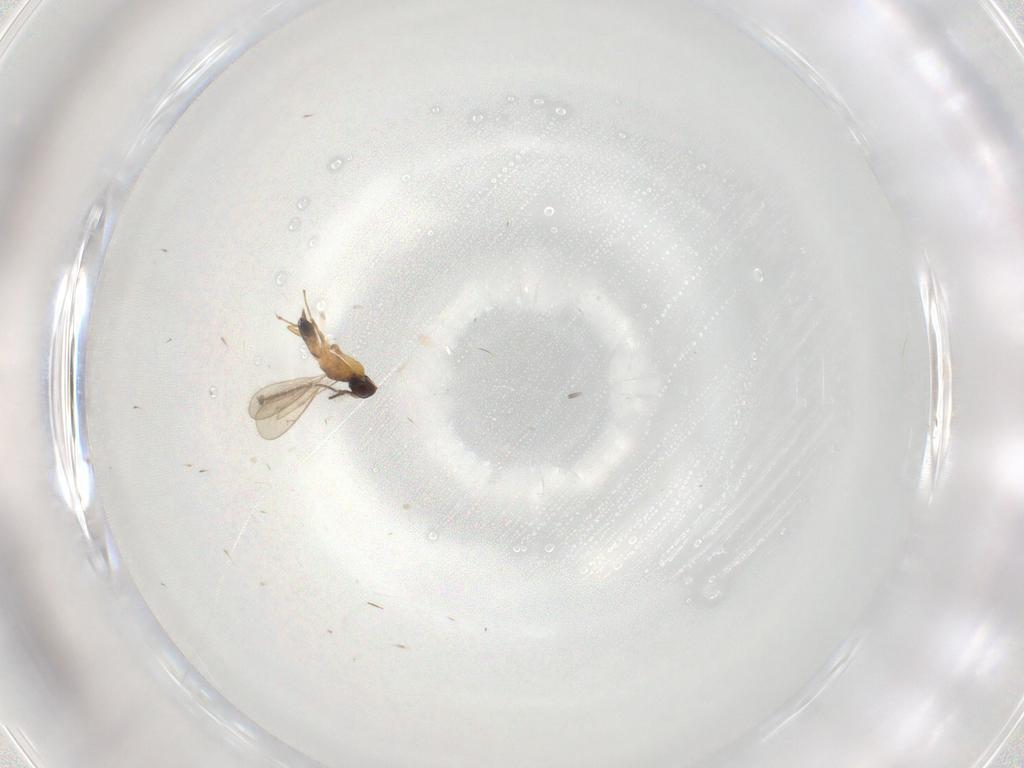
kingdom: Animalia
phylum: Arthropoda
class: Insecta
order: Hymenoptera
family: Eupelmidae
